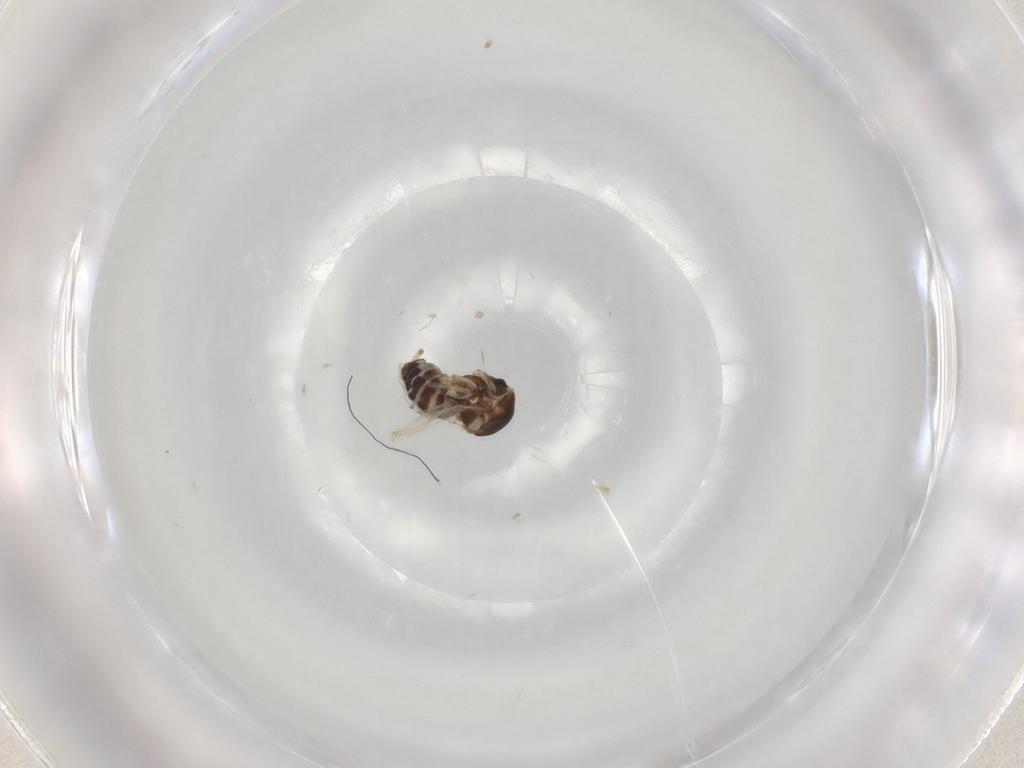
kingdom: Animalia
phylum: Arthropoda
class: Insecta
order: Diptera
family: Ceratopogonidae
